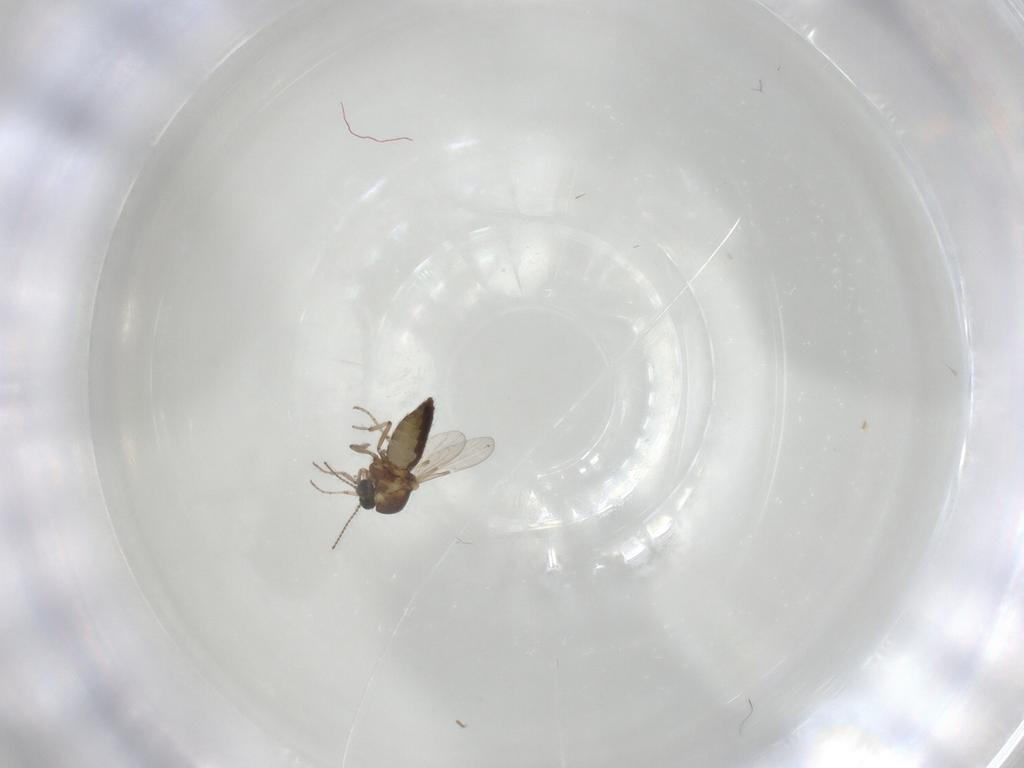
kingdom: Animalia
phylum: Arthropoda
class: Insecta
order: Diptera
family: Ceratopogonidae
